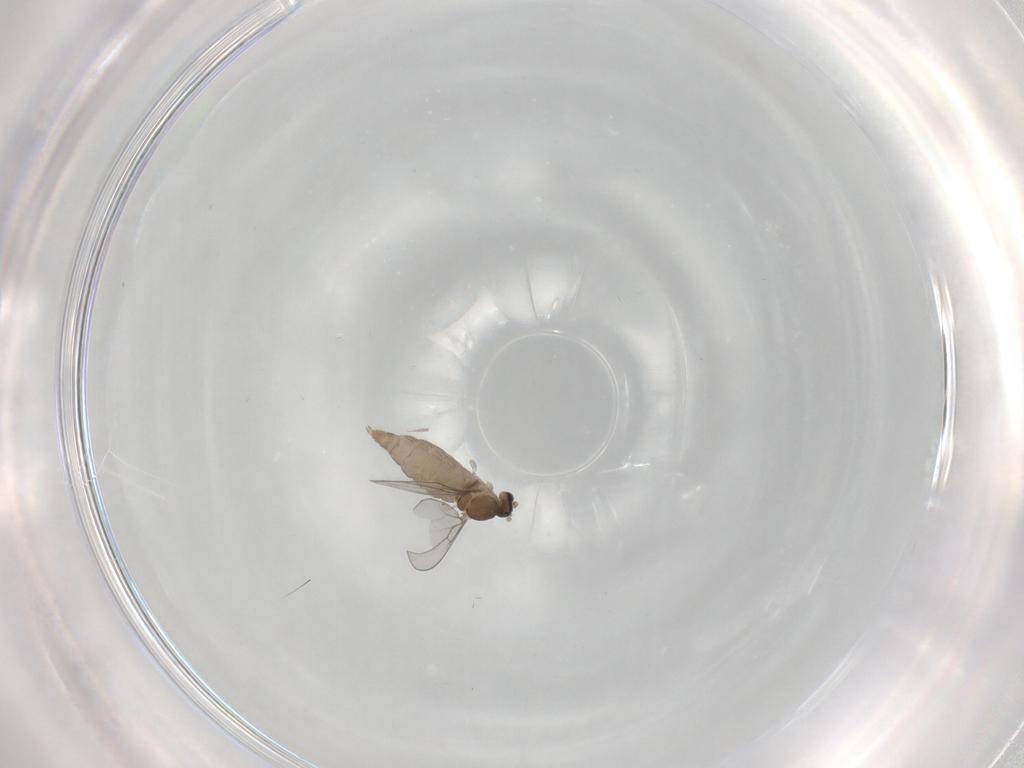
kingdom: Animalia
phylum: Arthropoda
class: Insecta
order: Diptera
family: Cecidomyiidae
